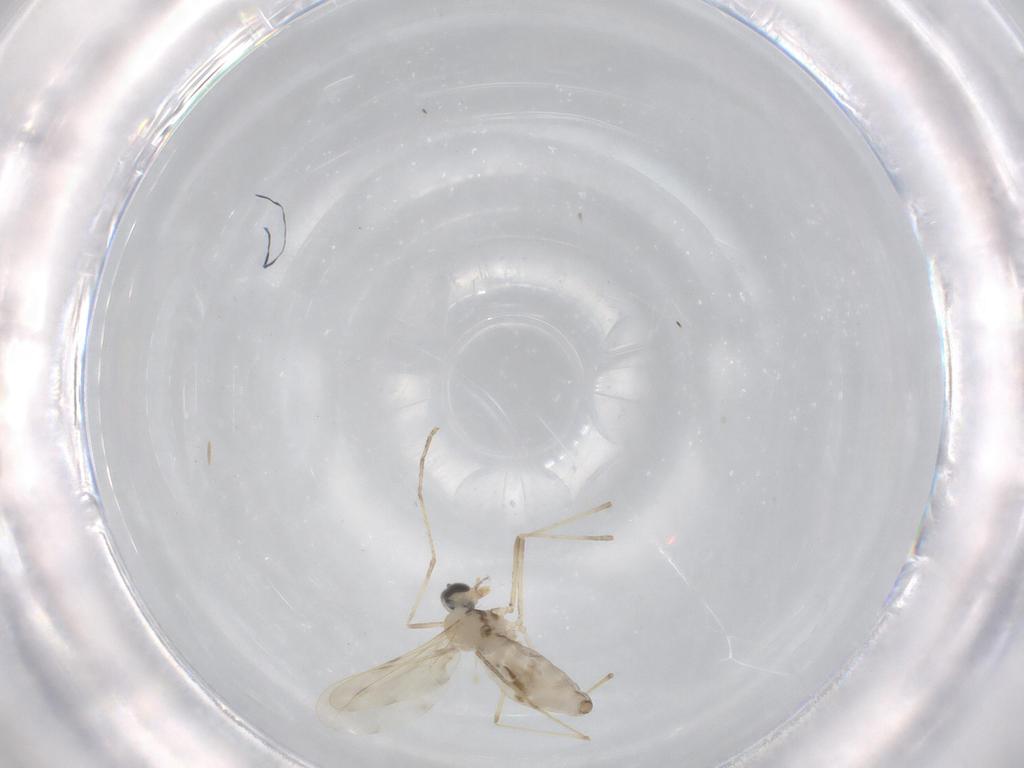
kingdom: Animalia
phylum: Arthropoda
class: Insecta
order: Diptera
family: Cecidomyiidae
